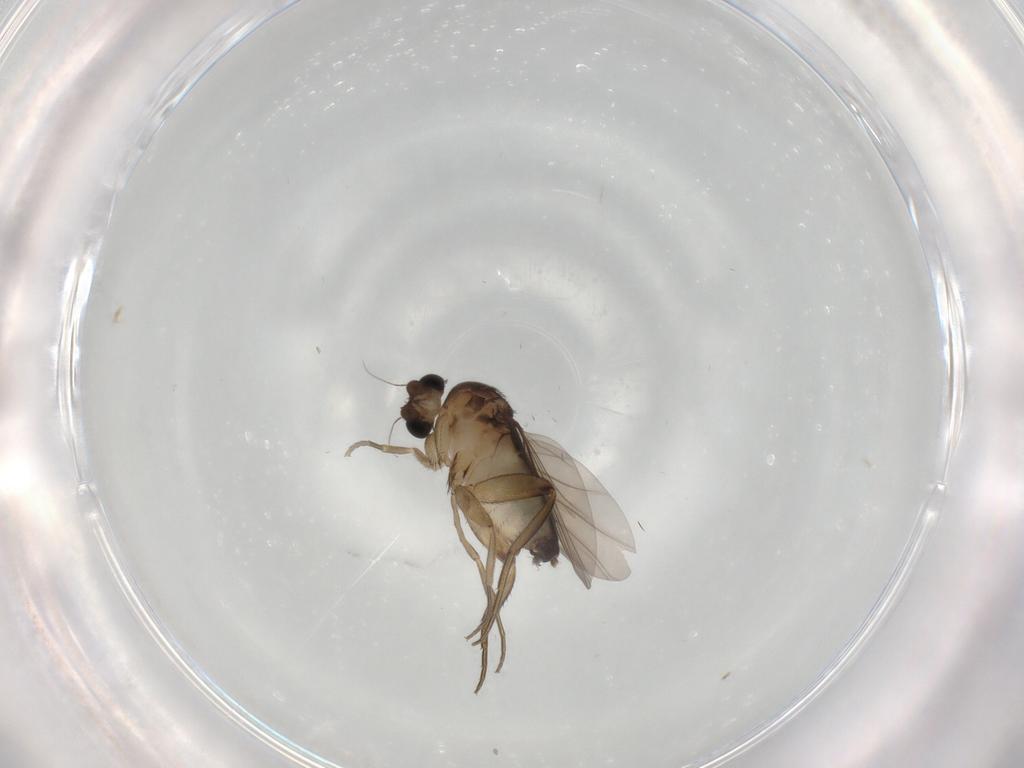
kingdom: Animalia
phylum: Arthropoda
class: Insecta
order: Diptera
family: Phoridae
